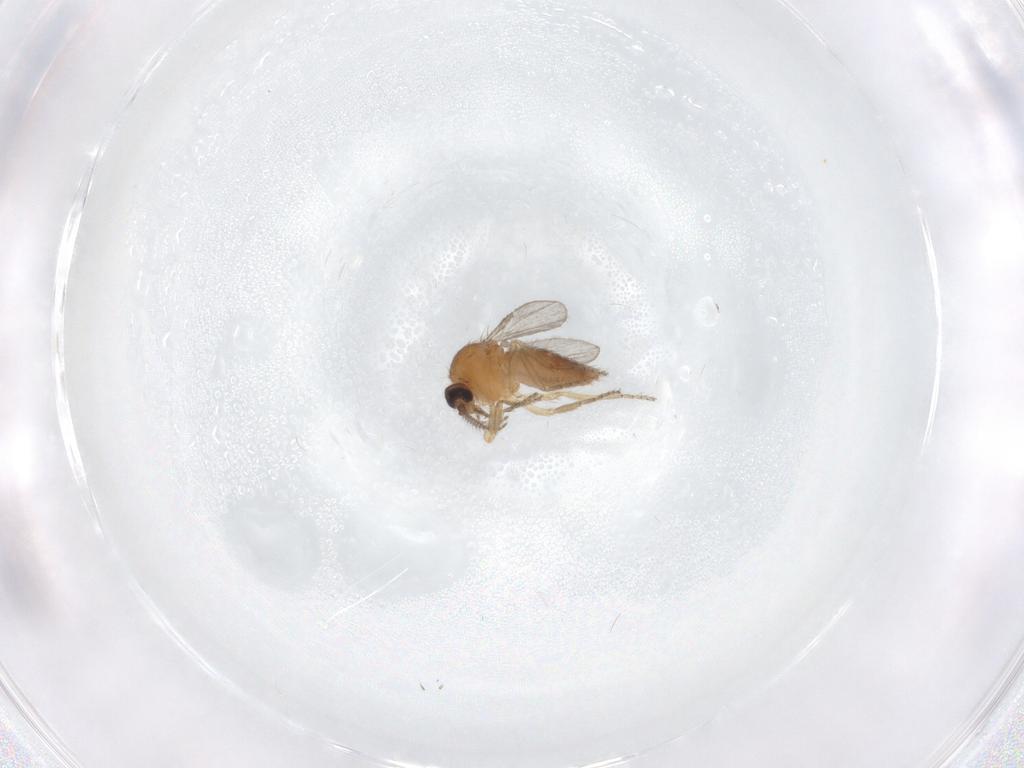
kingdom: Animalia
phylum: Arthropoda
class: Insecta
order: Diptera
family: Ceratopogonidae
